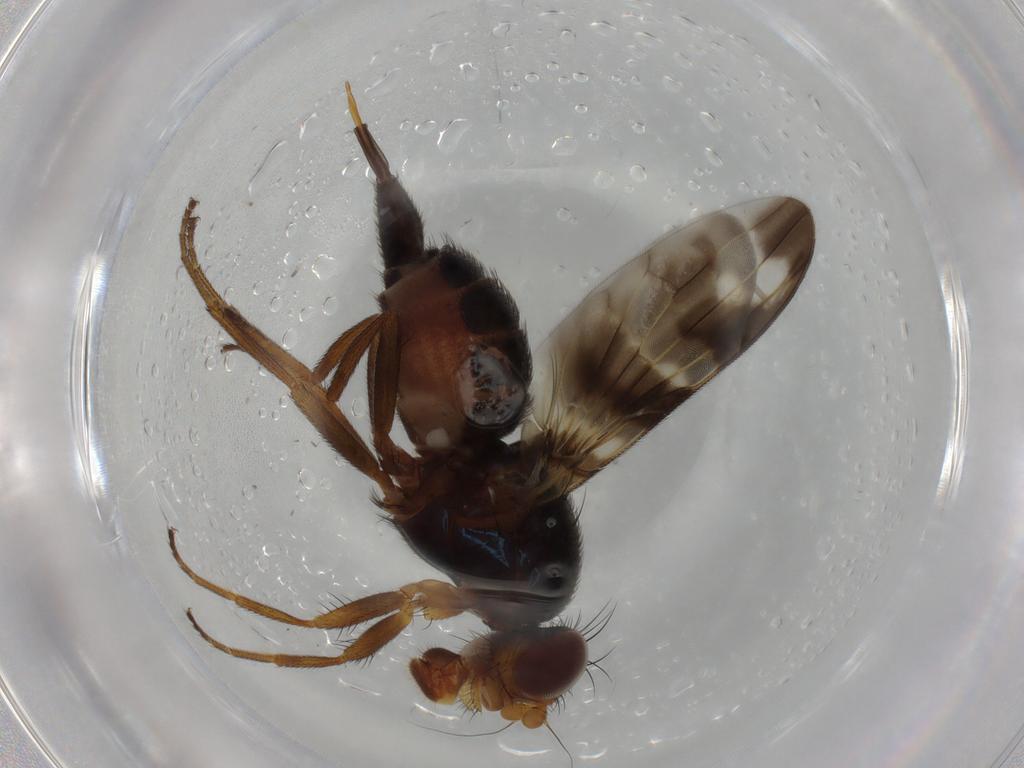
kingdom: Animalia
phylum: Arthropoda
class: Insecta
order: Diptera
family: Ulidiidae
